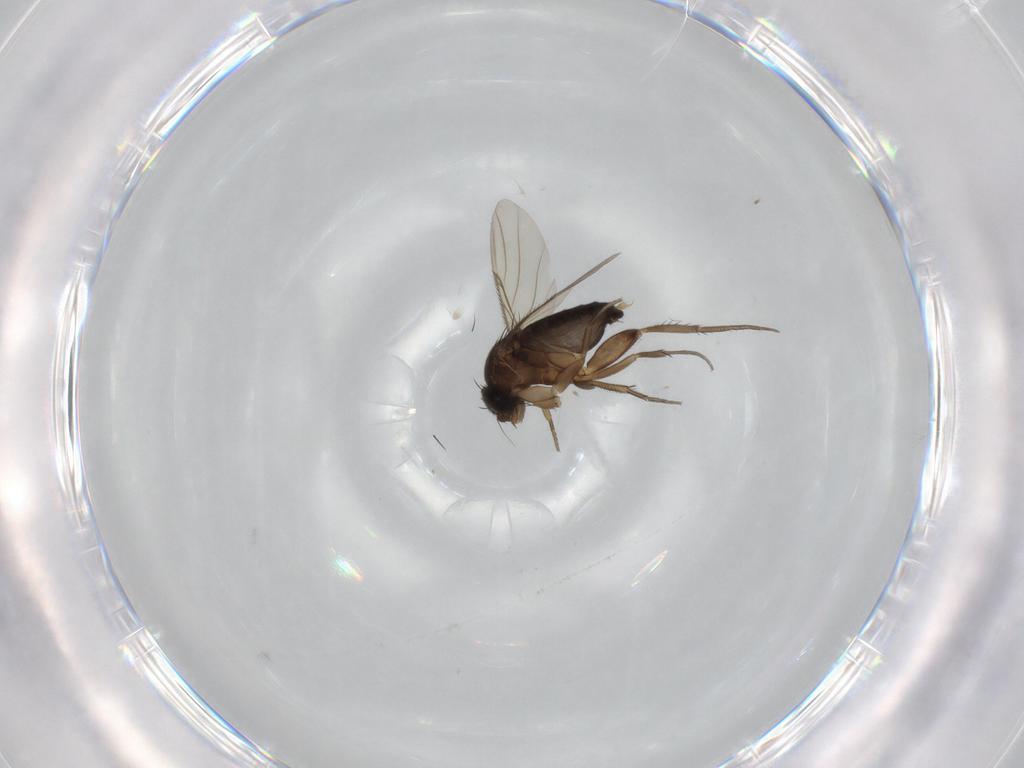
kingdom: Animalia
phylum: Arthropoda
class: Insecta
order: Diptera
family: Phoridae
